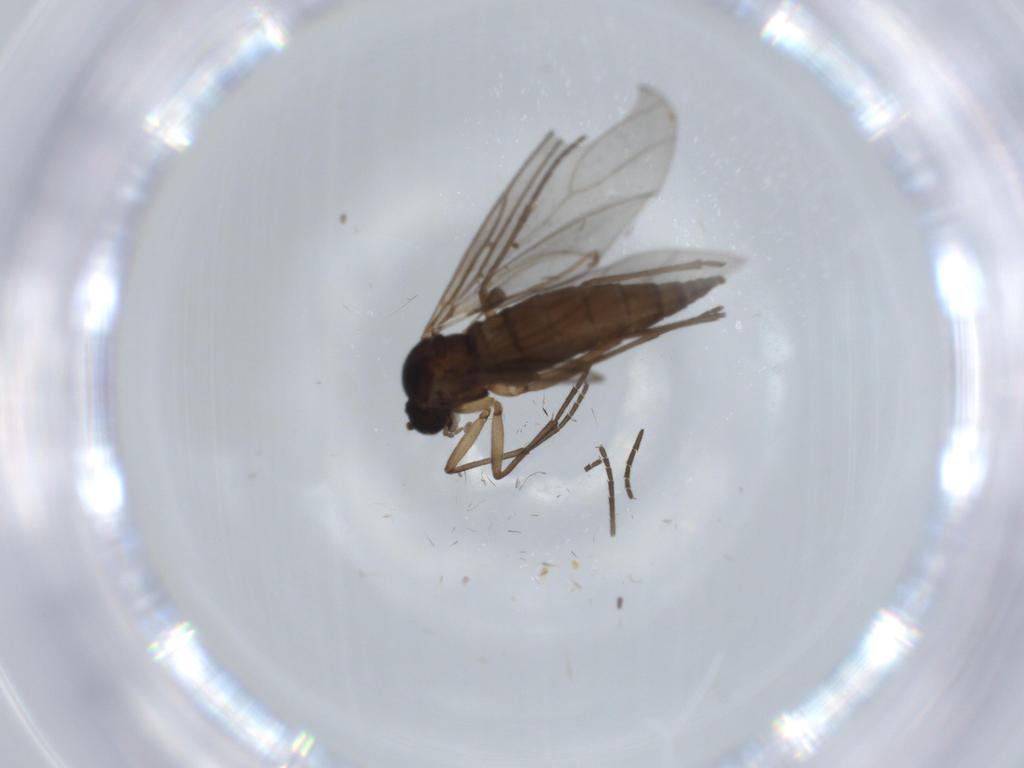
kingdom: Animalia
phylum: Arthropoda
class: Insecta
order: Diptera
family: Sciaridae
